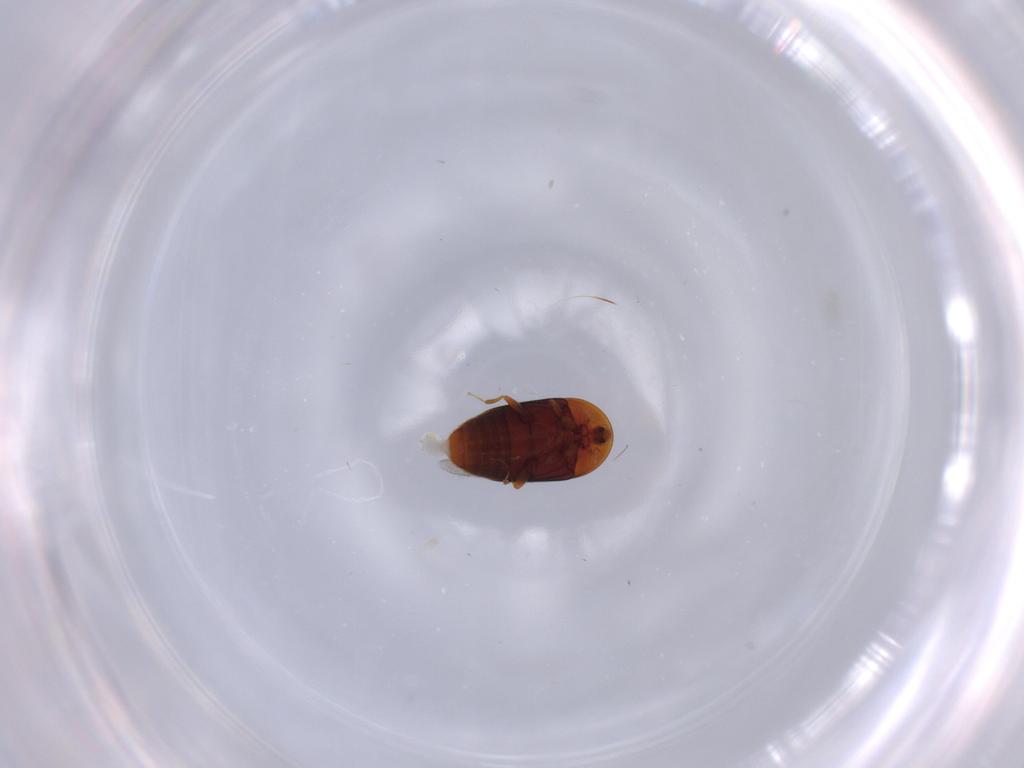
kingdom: Animalia
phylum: Arthropoda
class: Insecta
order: Coleoptera
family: Corylophidae
